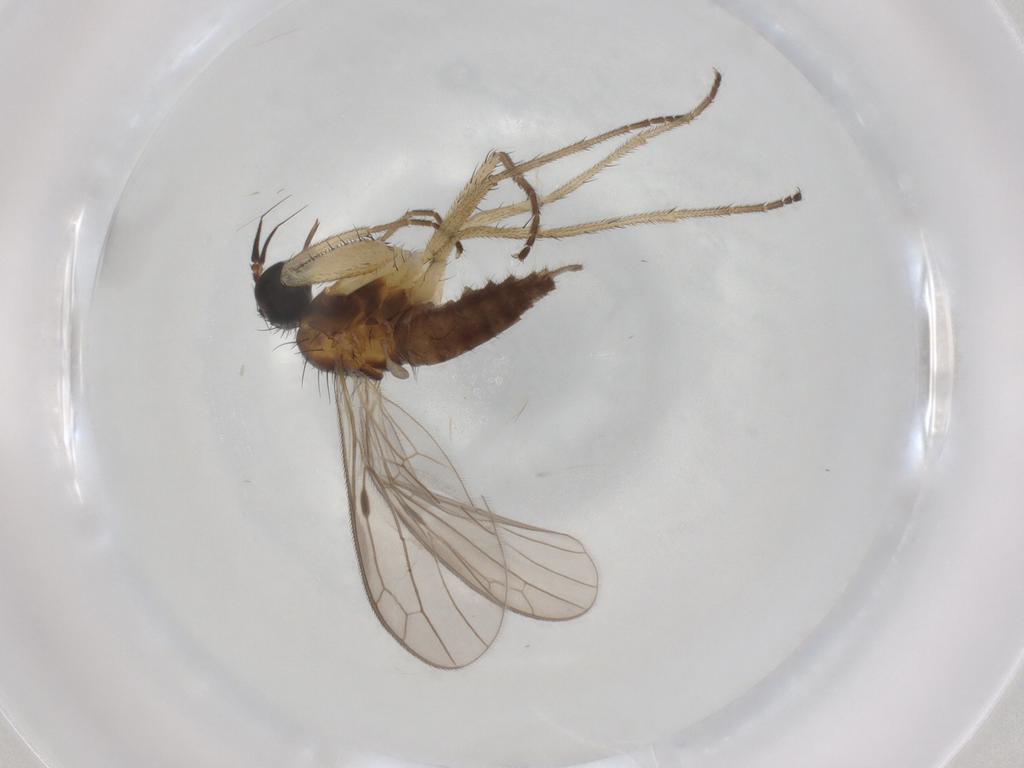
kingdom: Animalia
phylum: Arthropoda
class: Insecta
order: Diptera
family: Empididae
